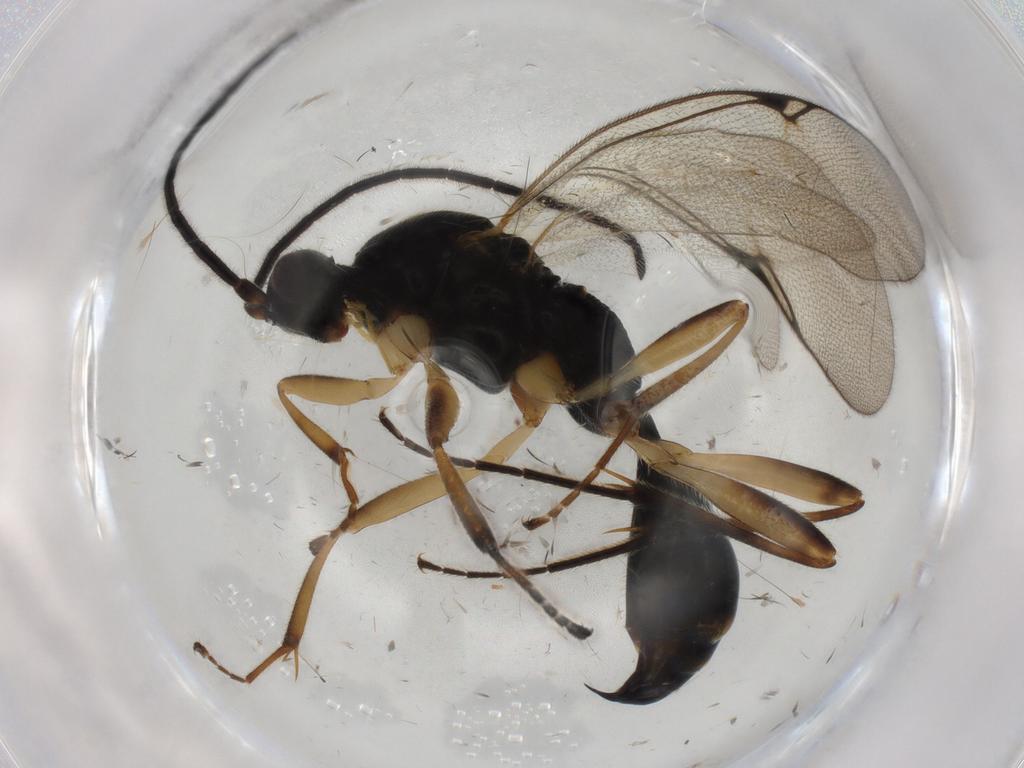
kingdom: Animalia
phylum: Arthropoda
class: Insecta
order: Hymenoptera
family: Proctotrupidae
